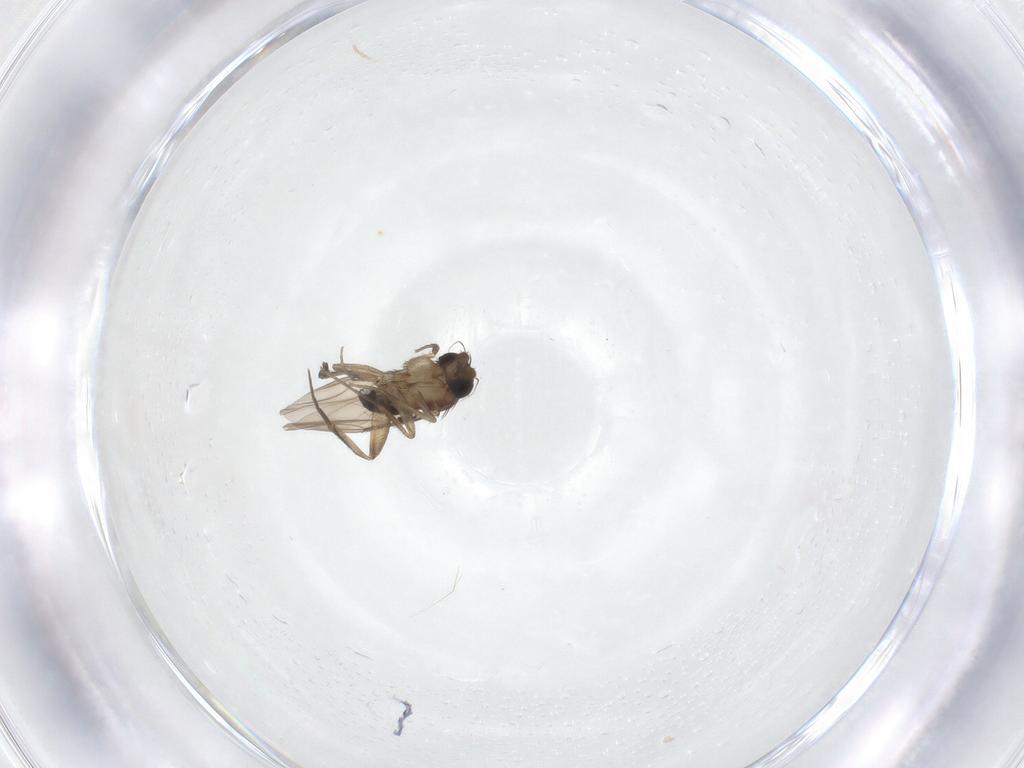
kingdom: Animalia
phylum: Arthropoda
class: Insecta
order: Diptera
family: Phoridae
